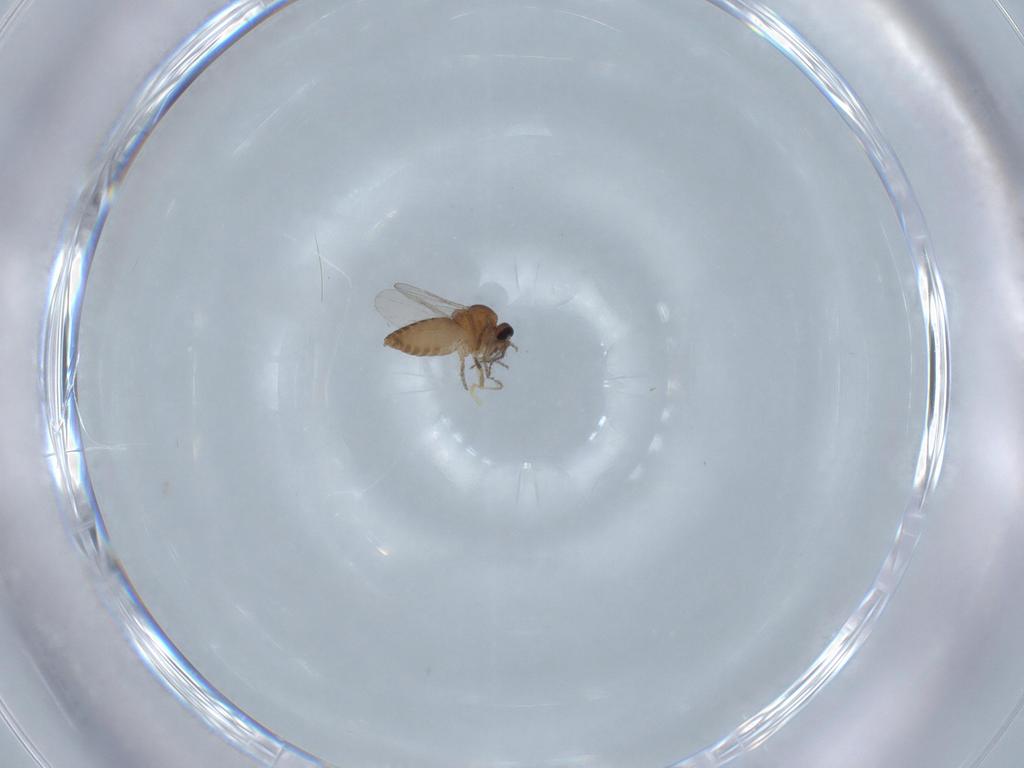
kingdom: Animalia
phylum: Arthropoda
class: Insecta
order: Diptera
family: Ceratopogonidae
